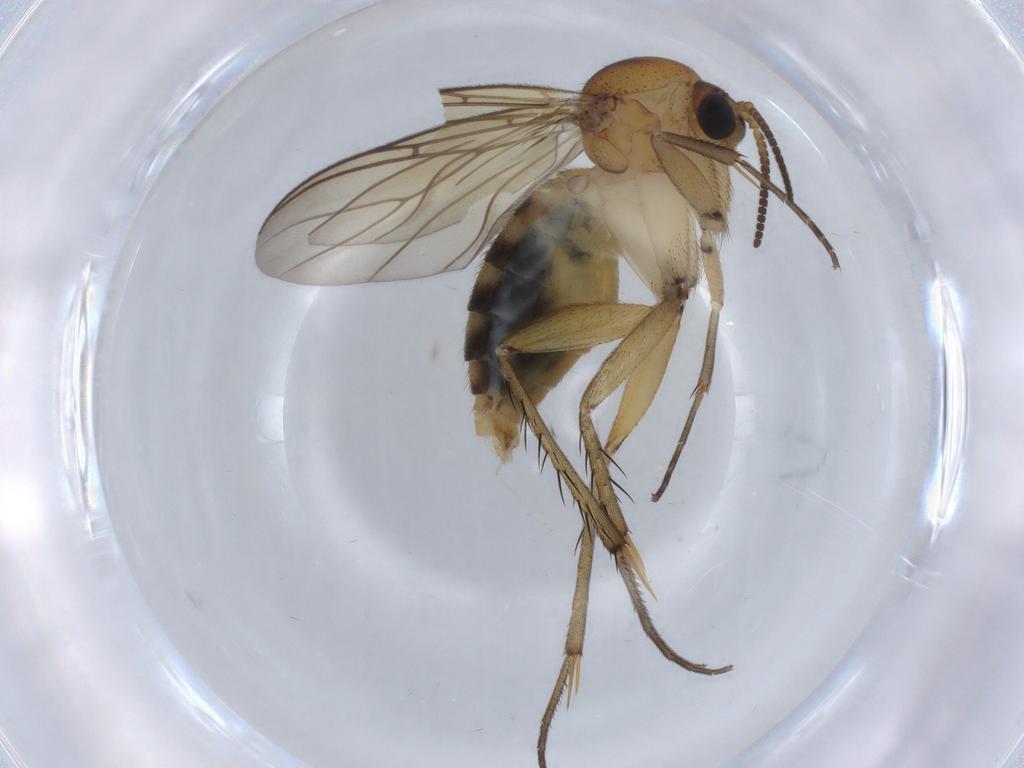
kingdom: Animalia
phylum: Arthropoda
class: Insecta
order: Diptera
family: Mycetophilidae
